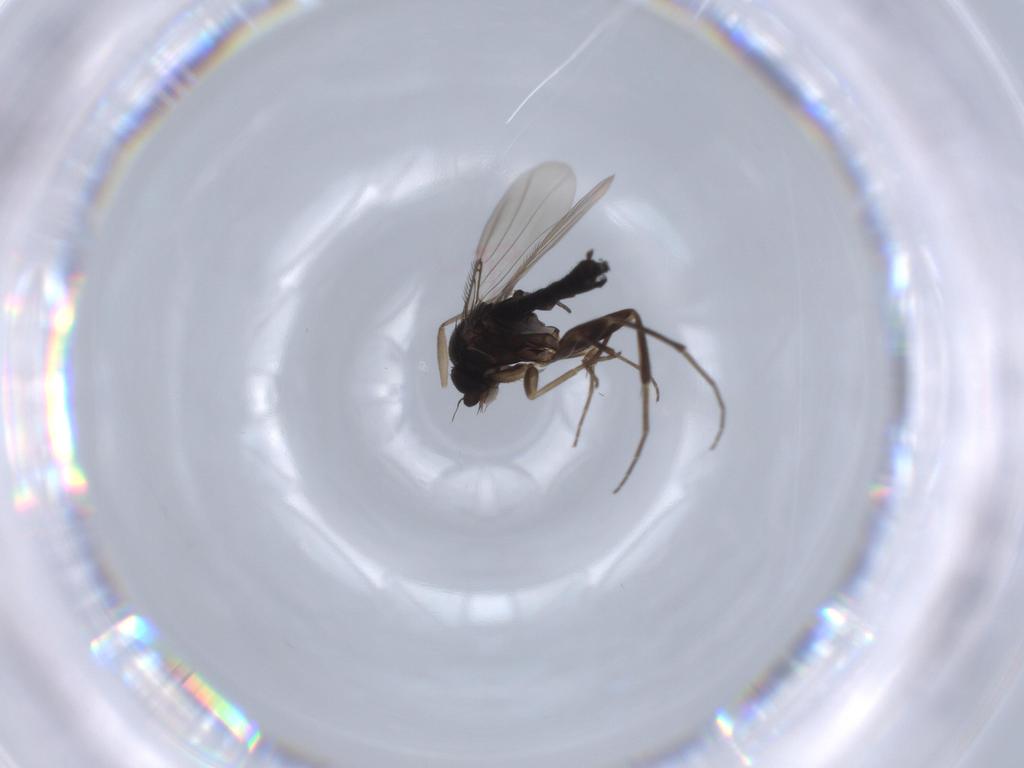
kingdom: Animalia
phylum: Arthropoda
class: Insecta
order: Diptera
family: Phoridae
